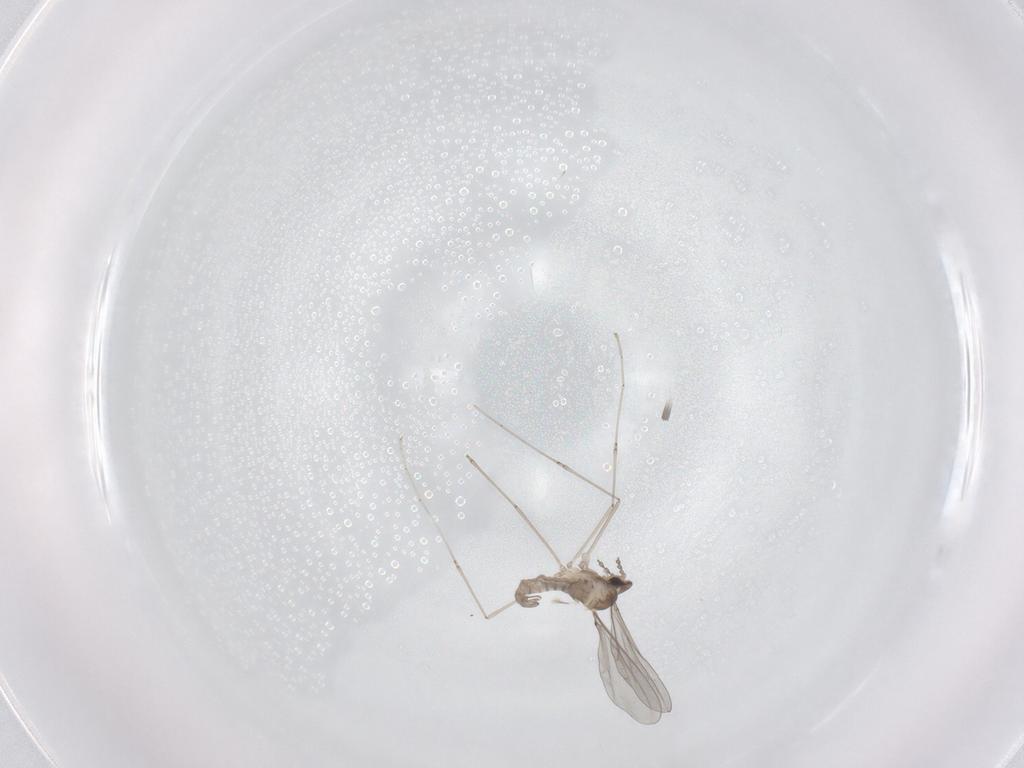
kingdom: Animalia
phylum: Arthropoda
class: Insecta
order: Diptera
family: Cecidomyiidae
